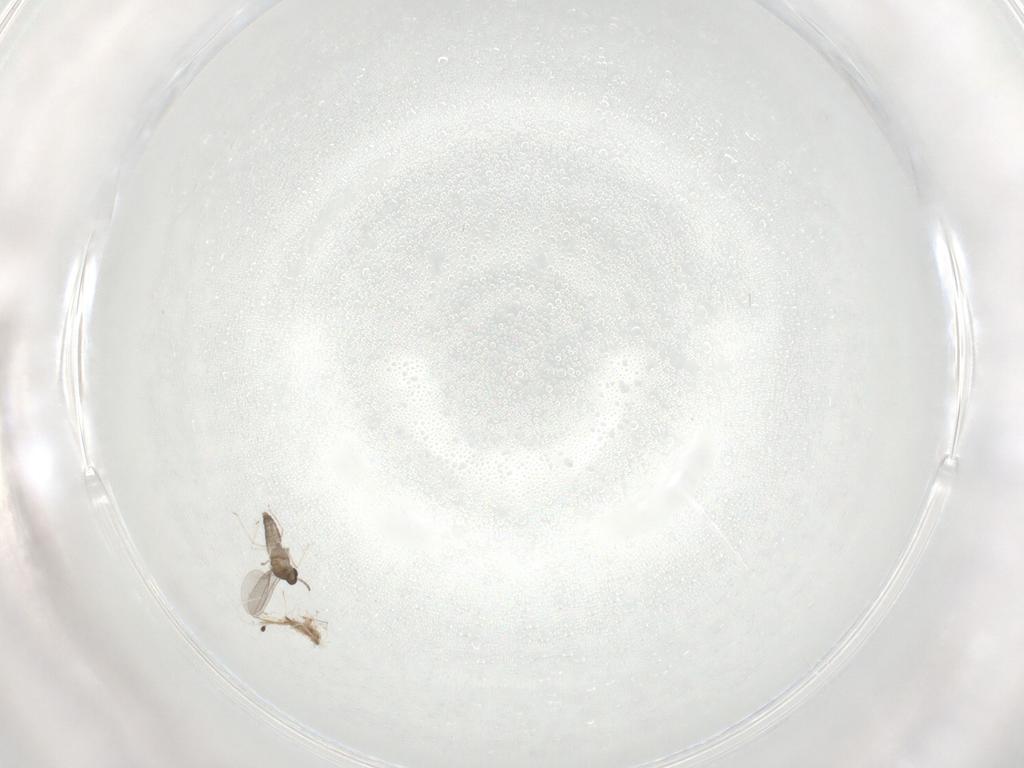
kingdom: Animalia
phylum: Arthropoda
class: Insecta
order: Diptera
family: Cecidomyiidae
